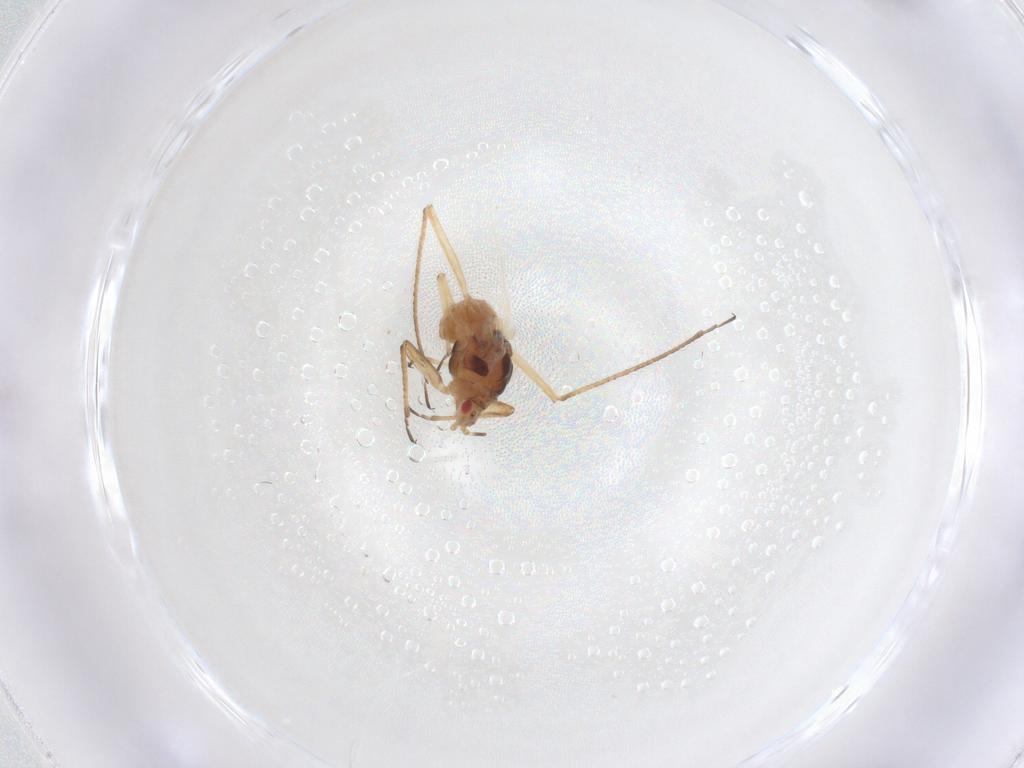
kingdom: Animalia
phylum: Arthropoda
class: Insecta
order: Hemiptera
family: Lachnidae
